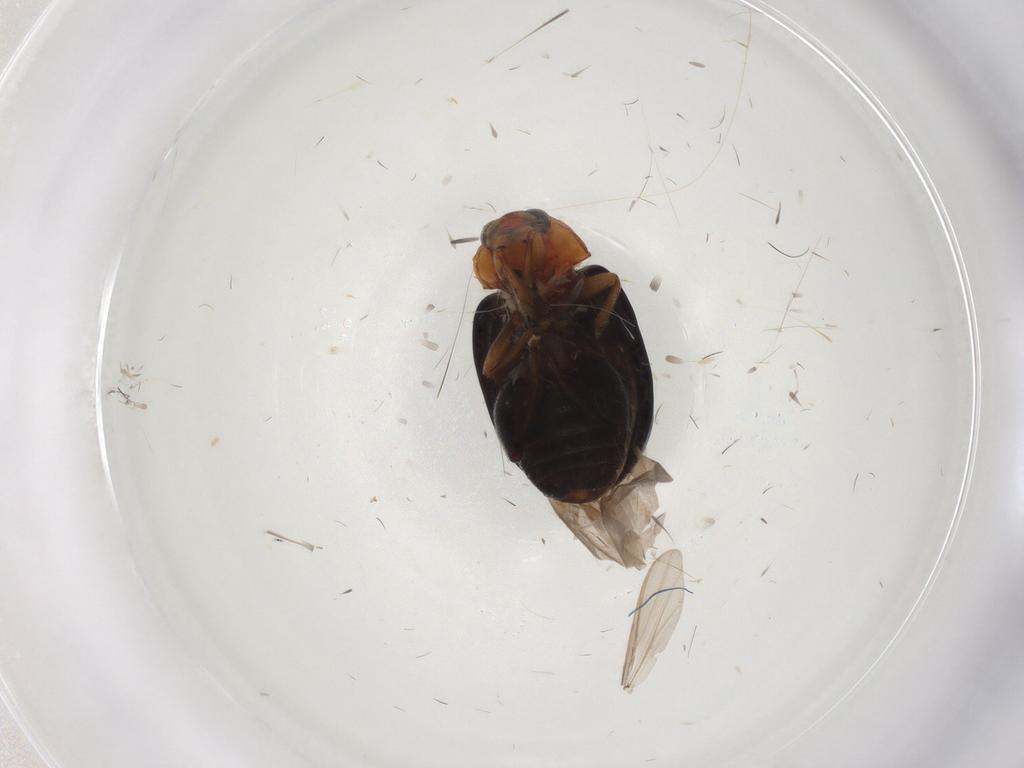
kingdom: Animalia
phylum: Arthropoda
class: Insecta
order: Coleoptera
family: Chrysomelidae
